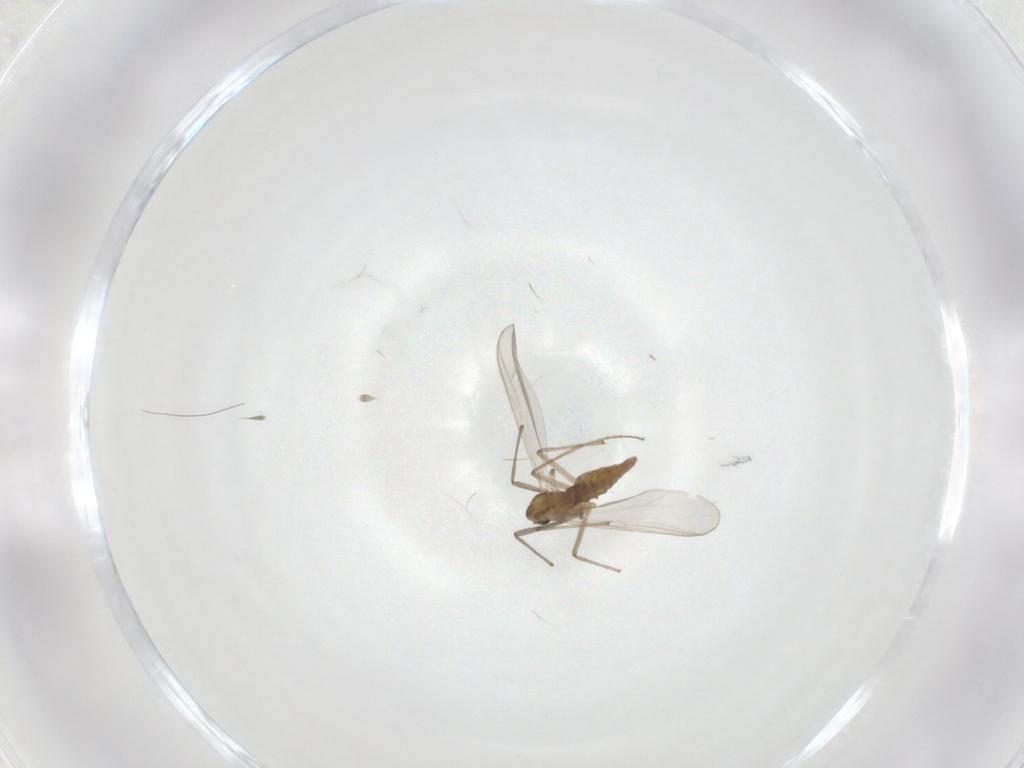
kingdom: Animalia
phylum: Arthropoda
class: Insecta
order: Diptera
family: Chironomidae
